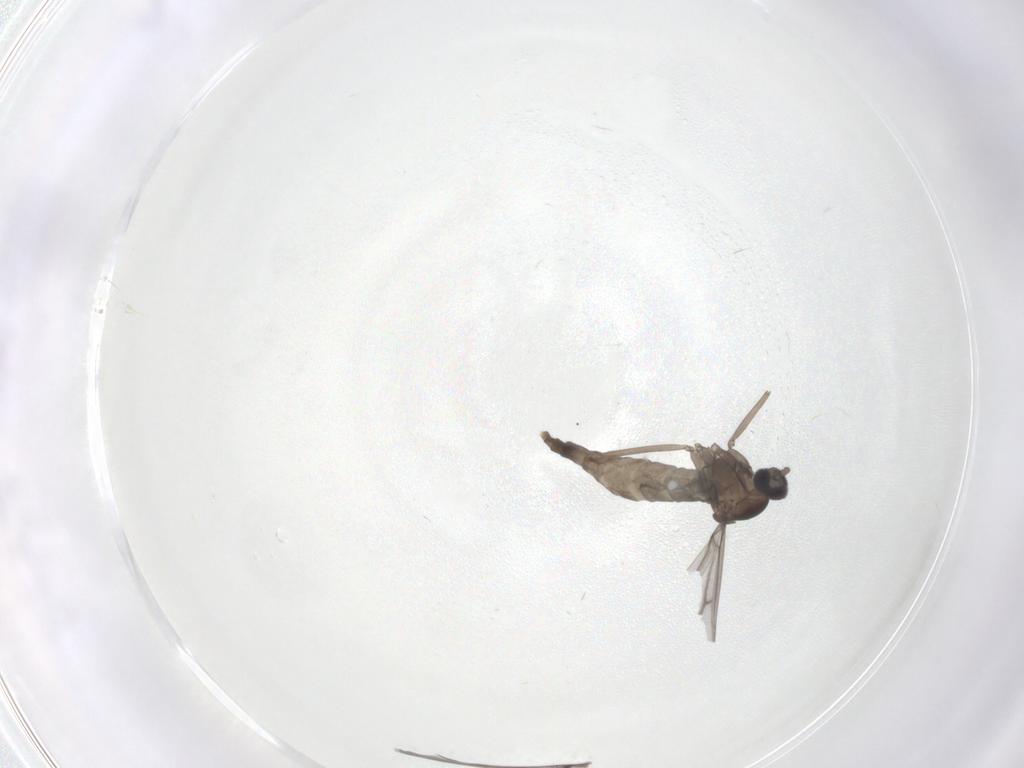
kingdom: Animalia
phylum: Arthropoda
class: Insecta
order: Diptera
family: Cecidomyiidae
